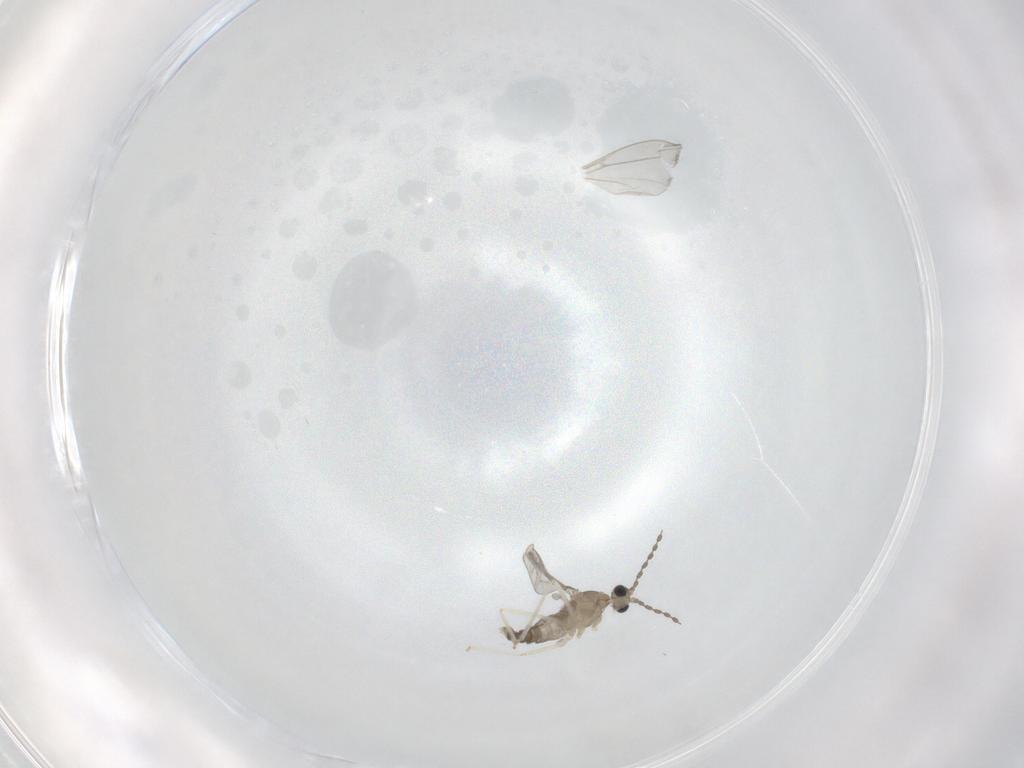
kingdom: Animalia
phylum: Arthropoda
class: Insecta
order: Diptera
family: Cecidomyiidae
